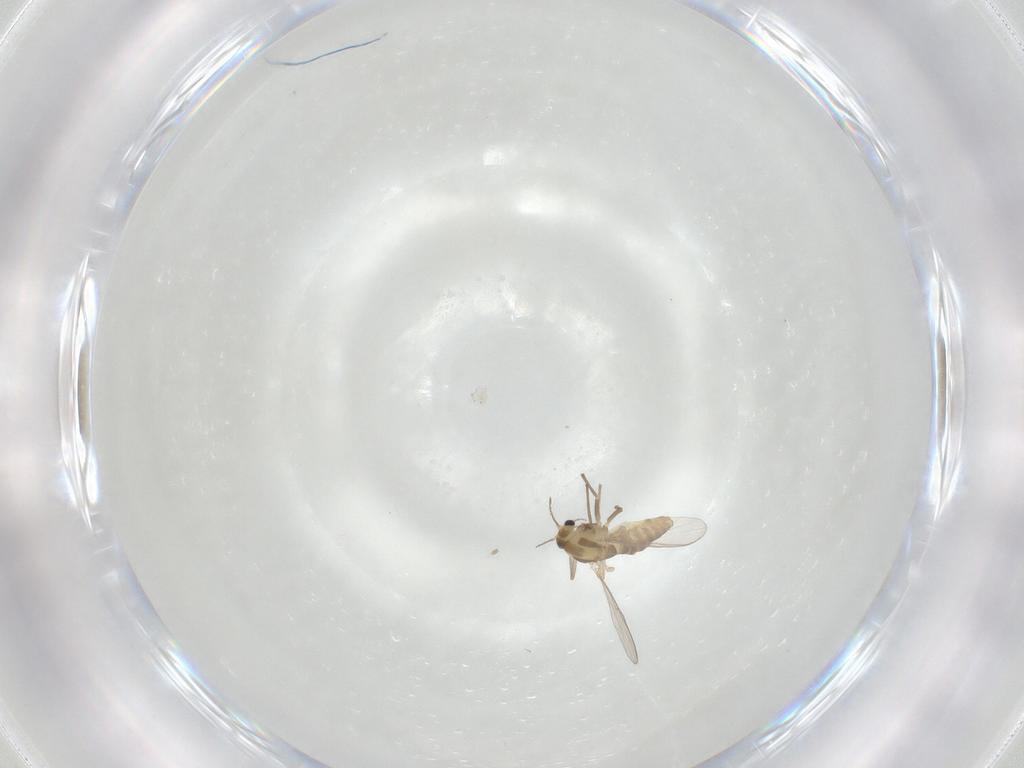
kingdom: Animalia
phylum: Arthropoda
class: Insecta
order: Diptera
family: Chironomidae
